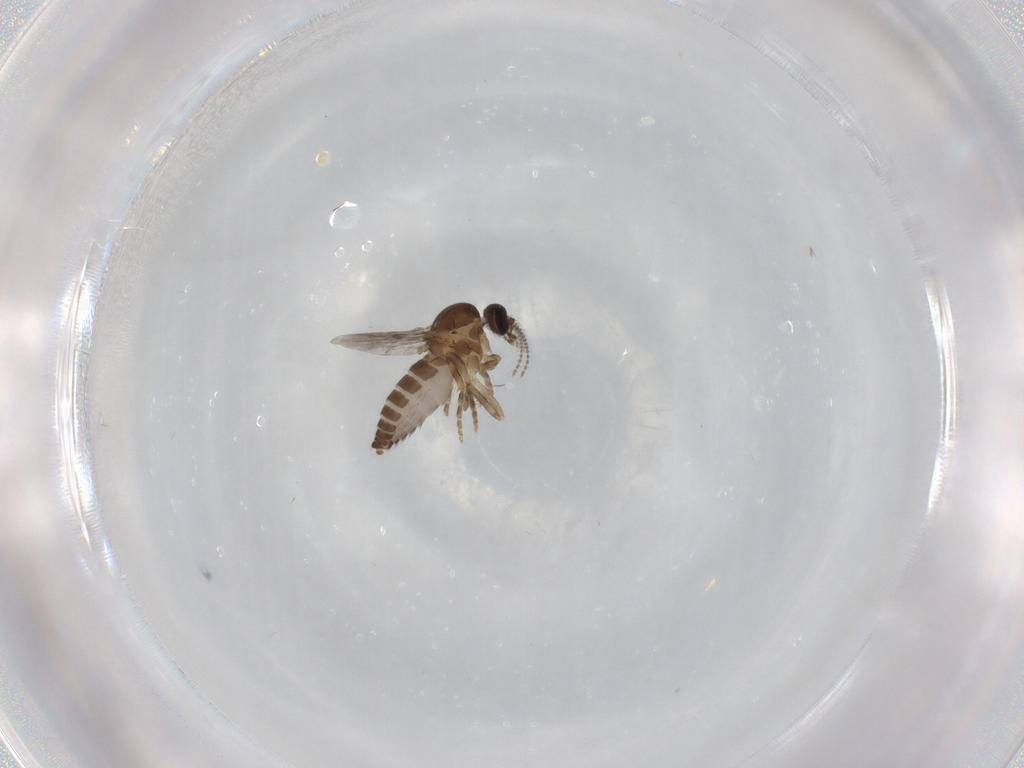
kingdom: Animalia
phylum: Arthropoda
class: Insecta
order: Diptera
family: Ceratopogonidae
